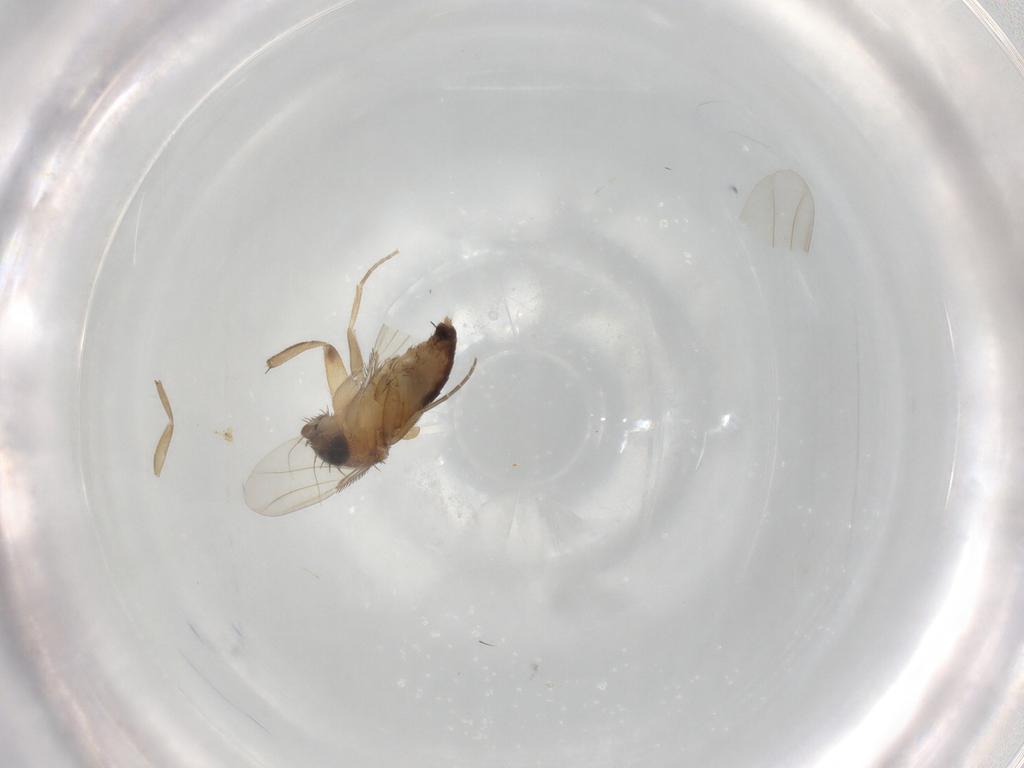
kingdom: Animalia
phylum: Arthropoda
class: Insecta
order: Diptera
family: Phoridae
